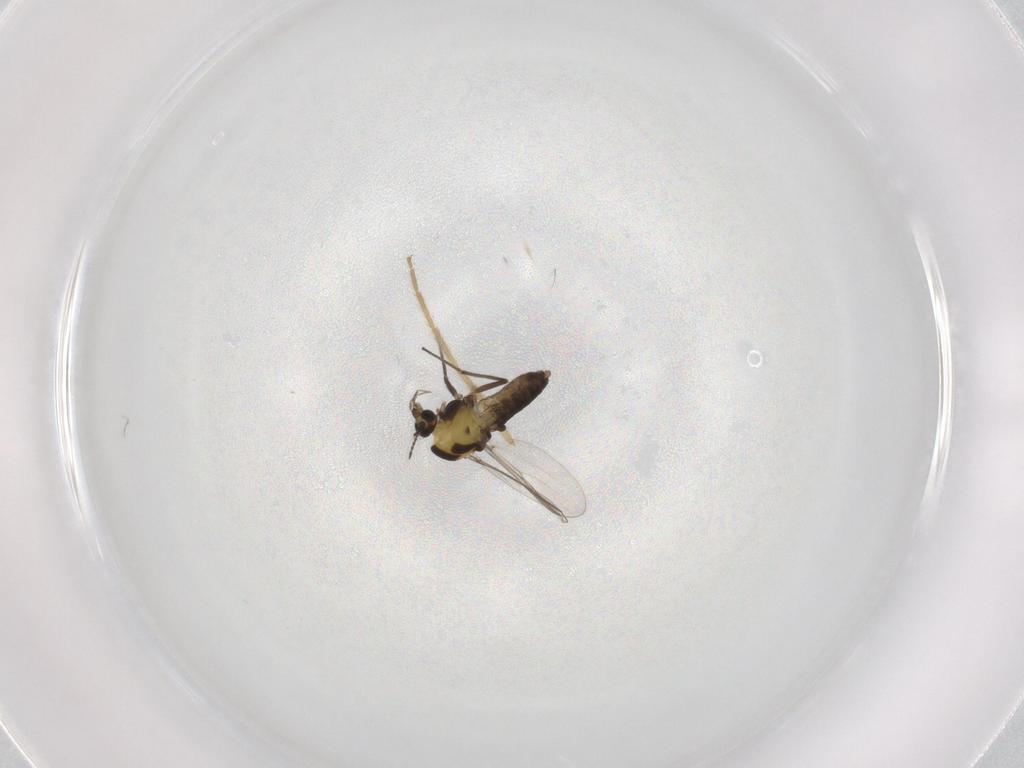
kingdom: Animalia
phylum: Arthropoda
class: Insecta
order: Diptera
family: Chironomidae
